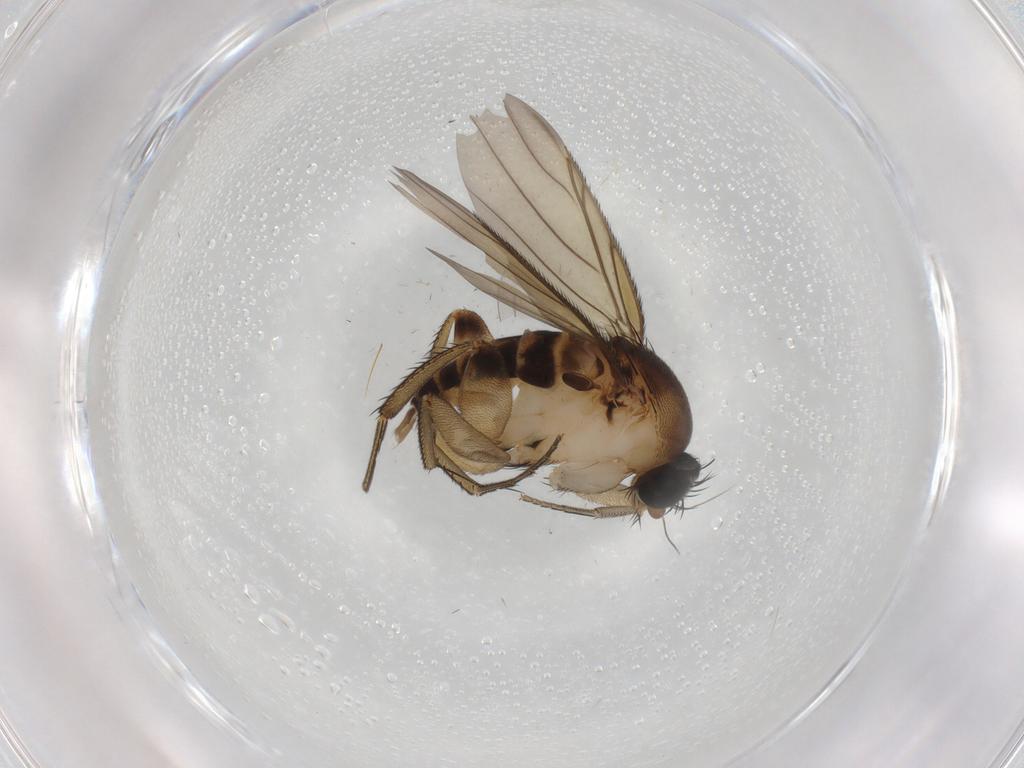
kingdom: Animalia
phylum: Arthropoda
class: Insecta
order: Diptera
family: Phoridae
